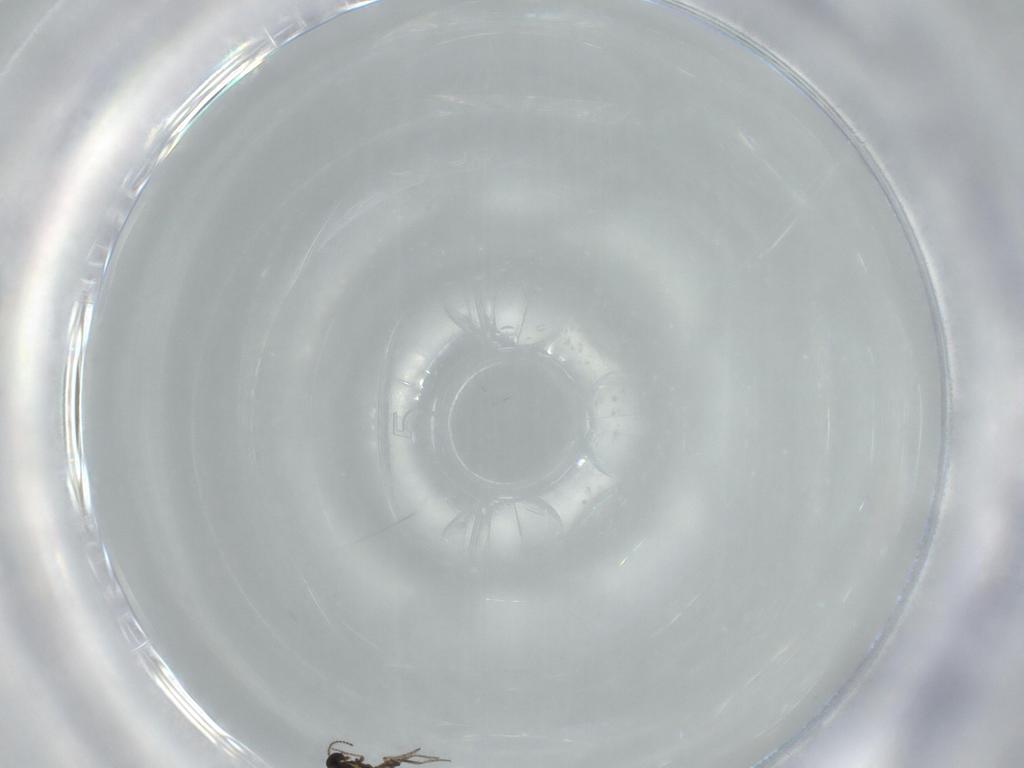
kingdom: Animalia
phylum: Arthropoda
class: Insecta
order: Diptera
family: Ceratopogonidae
